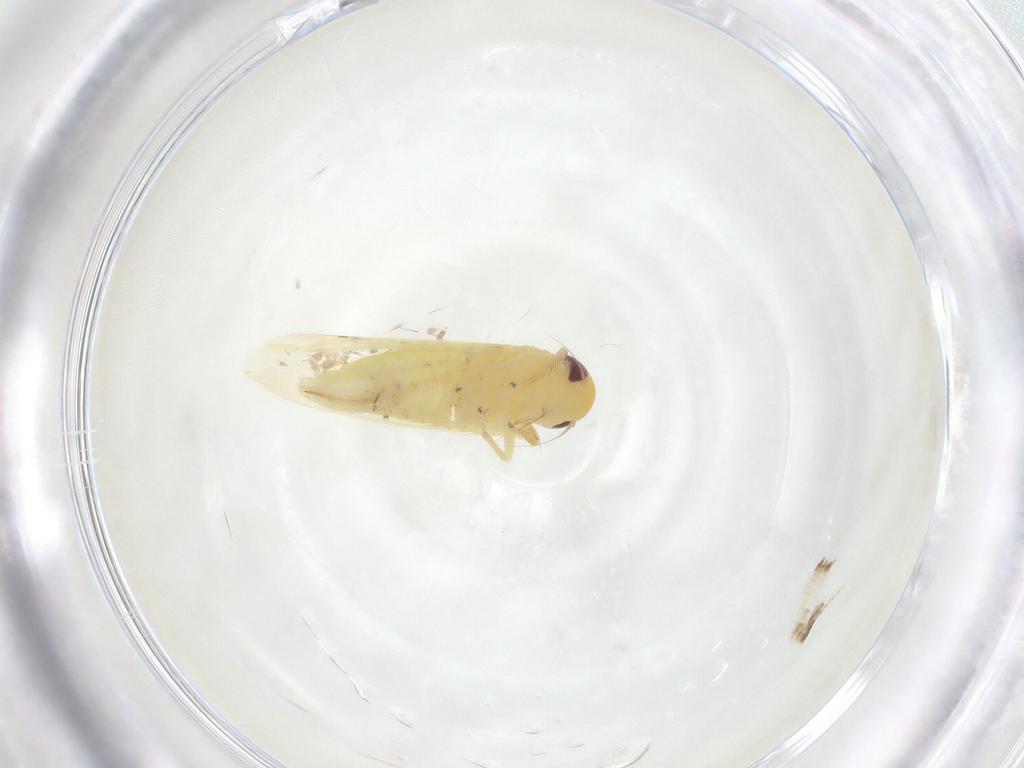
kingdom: Animalia
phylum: Arthropoda
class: Insecta
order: Hemiptera
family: Cicadellidae
